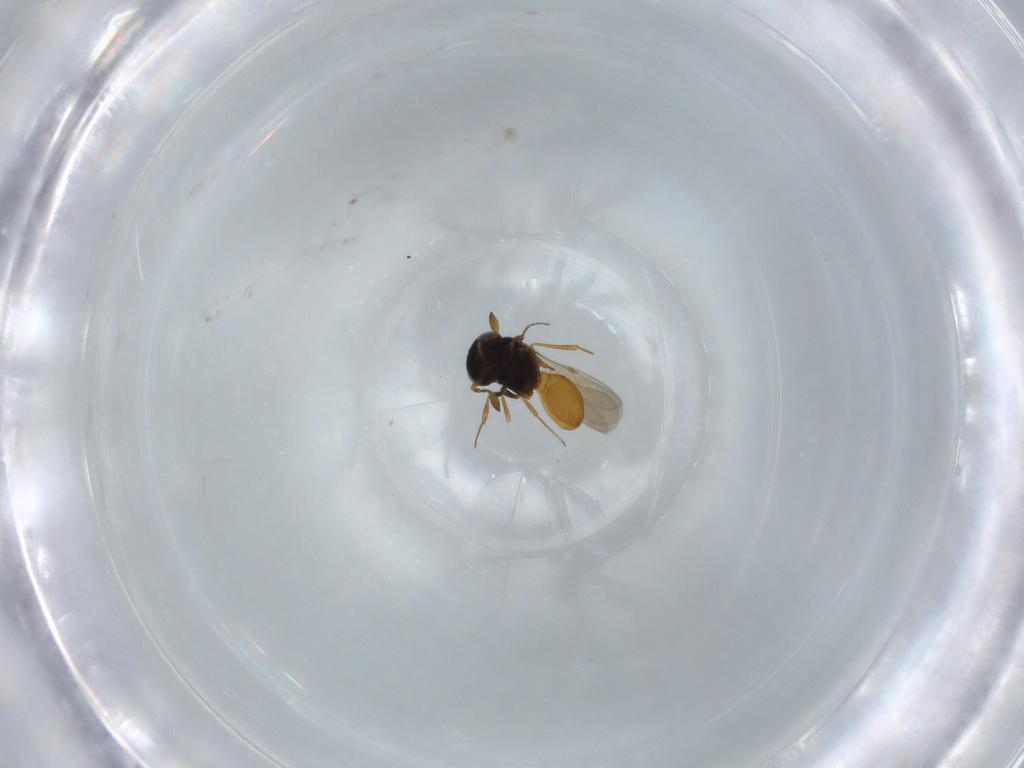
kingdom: Animalia
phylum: Arthropoda
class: Insecta
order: Hymenoptera
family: Scelionidae
